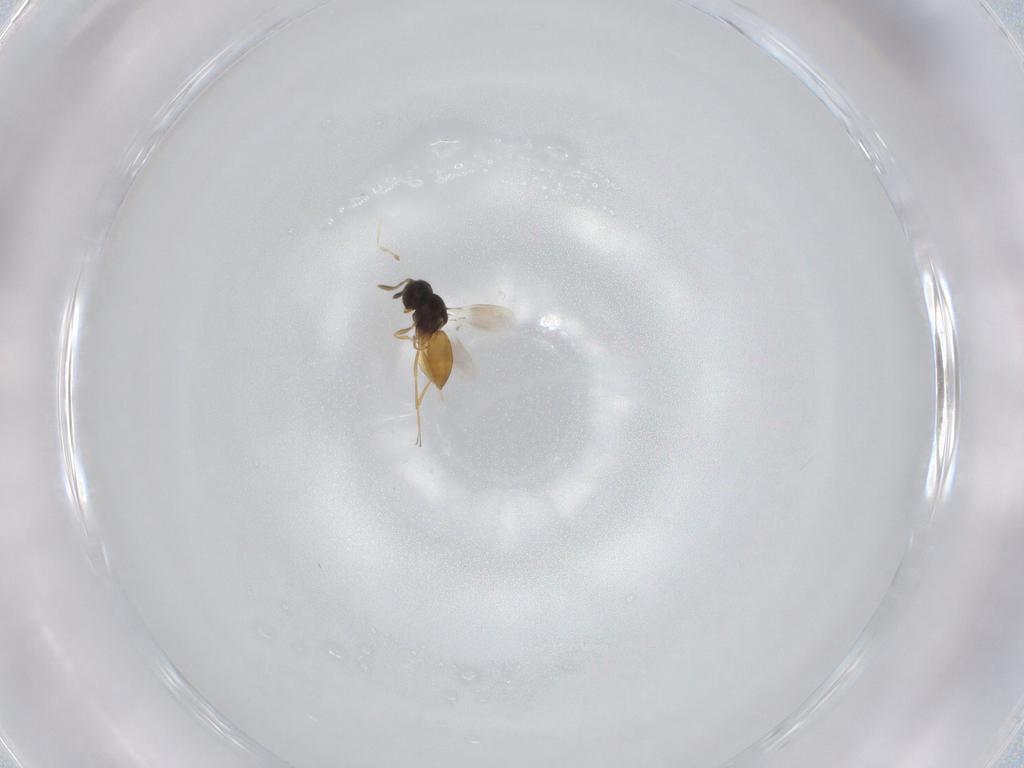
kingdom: Animalia
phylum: Arthropoda
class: Insecta
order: Hymenoptera
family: Scelionidae
